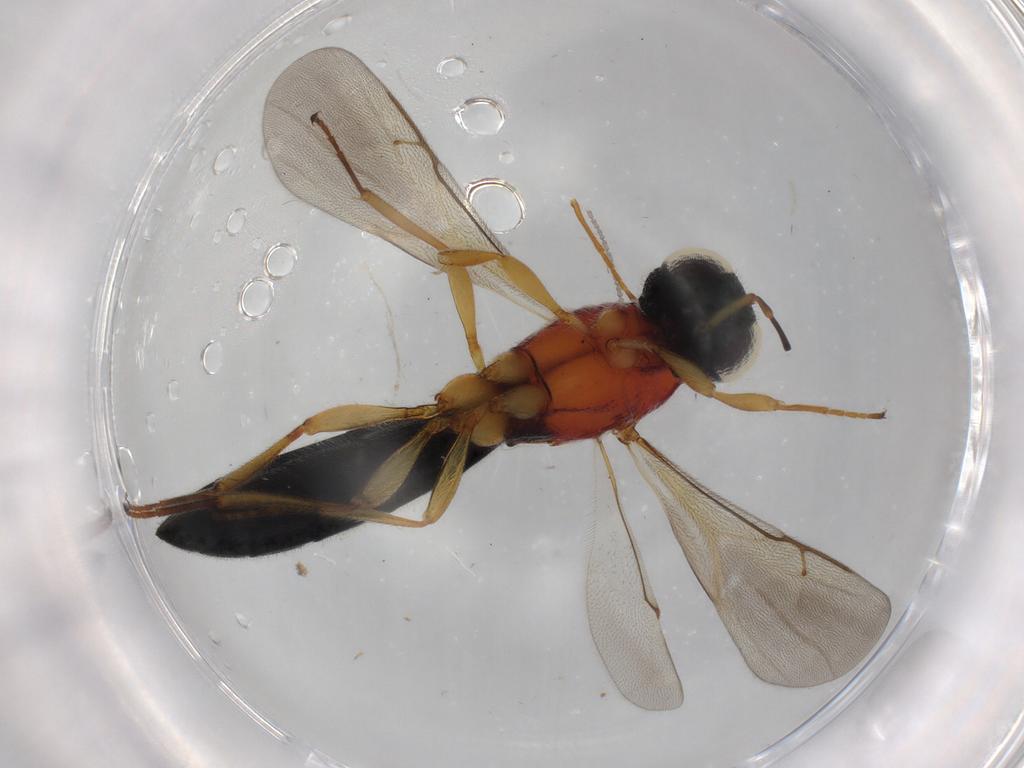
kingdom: Animalia
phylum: Arthropoda
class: Insecta
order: Hymenoptera
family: Scelionidae
